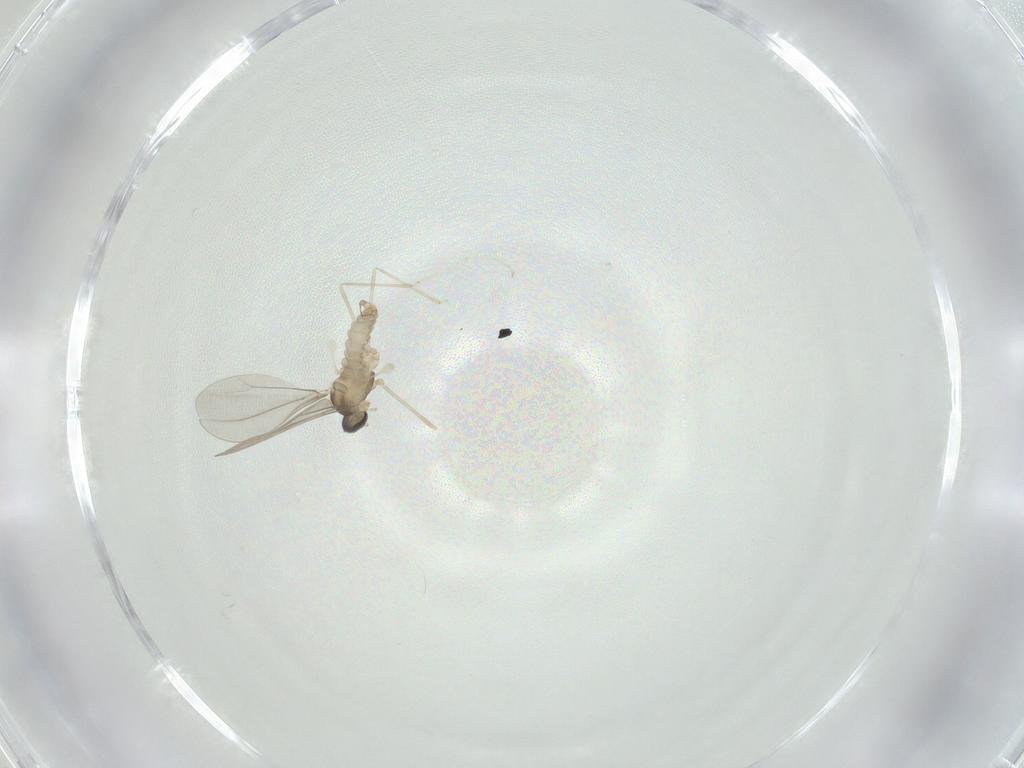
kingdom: Animalia
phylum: Arthropoda
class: Insecta
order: Diptera
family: Cecidomyiidae
